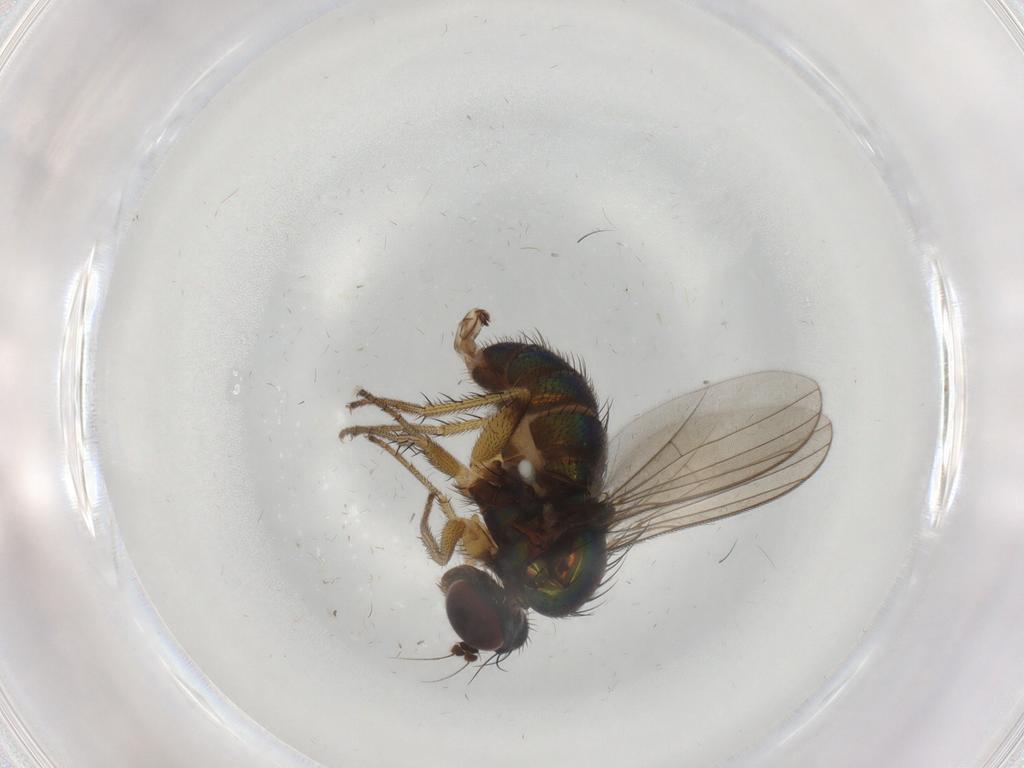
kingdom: Animalia
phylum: Arthropoda
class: Insecta
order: Diptera
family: Dolichopodidae
